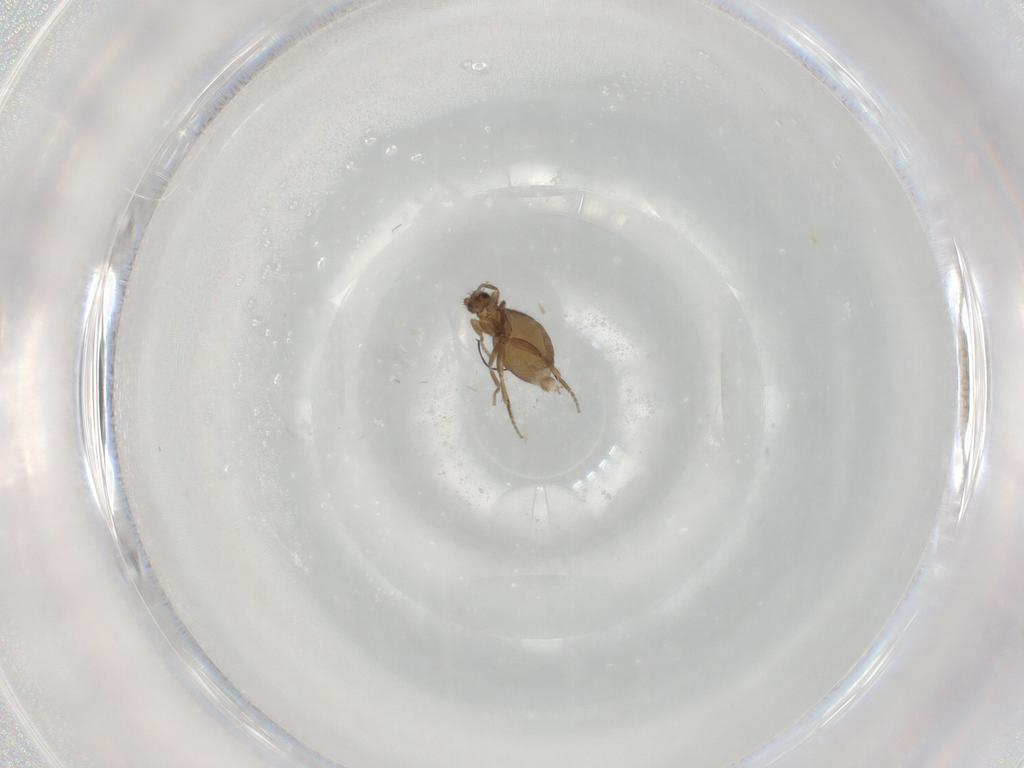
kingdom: Animalia
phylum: Arthropoda
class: Insecta
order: Diptera
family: Phoridae
